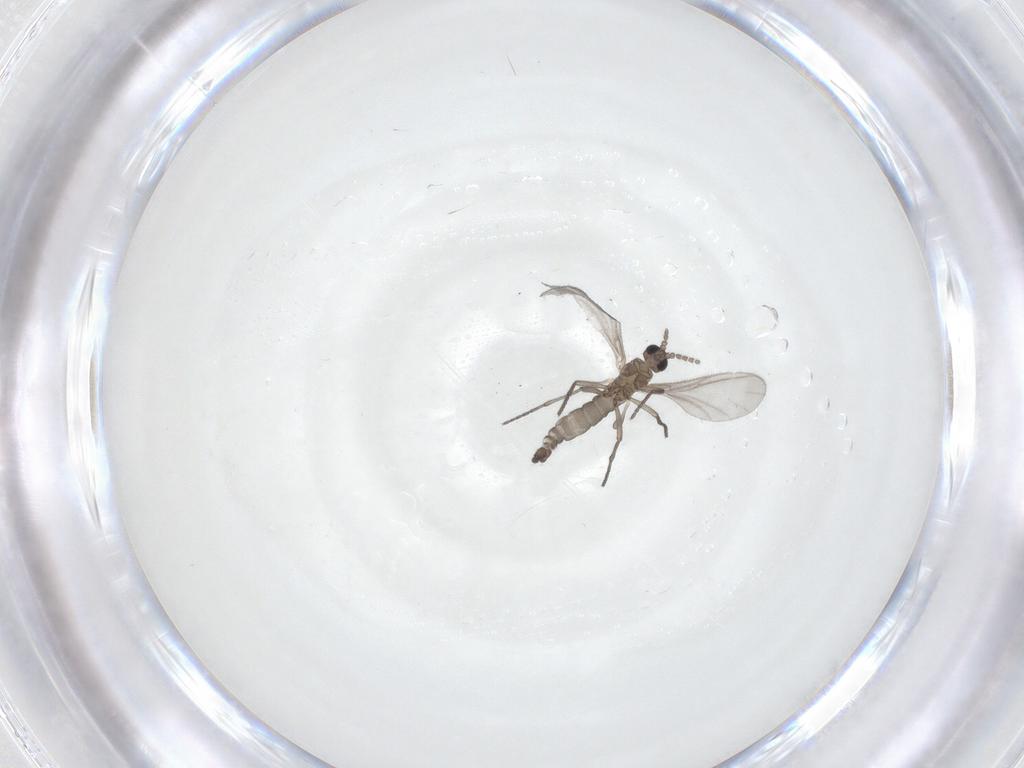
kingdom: Animalia
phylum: Arthropoda
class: Insecta
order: Diptera
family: Sciaridae
